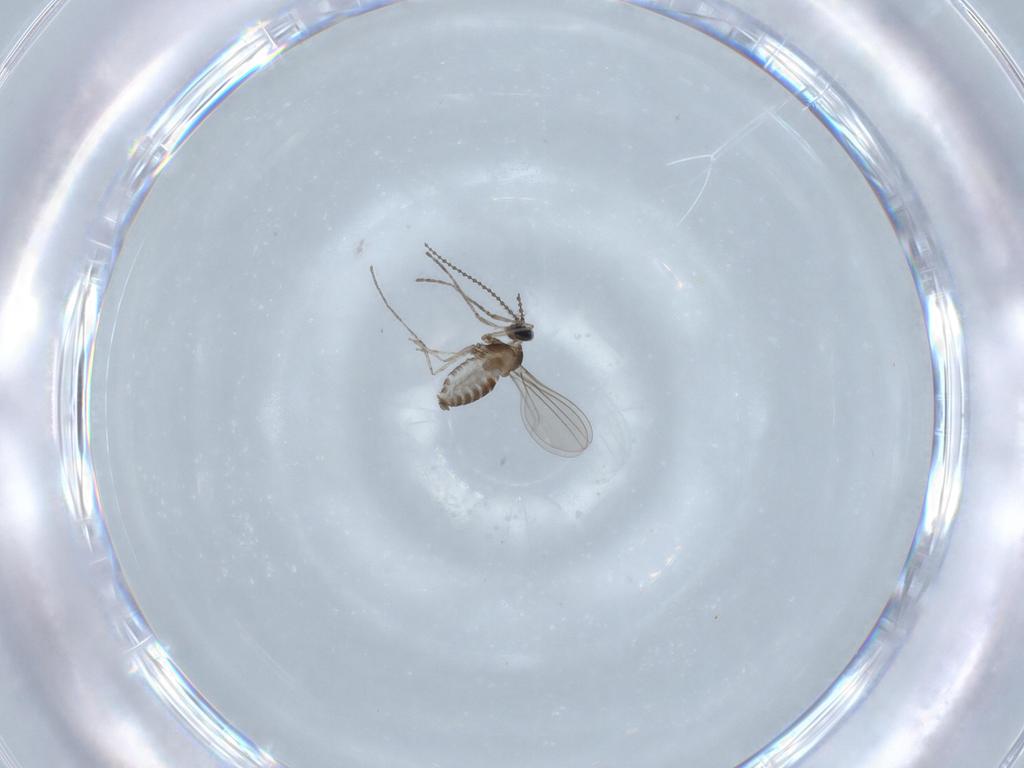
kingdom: Animalia
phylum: Arthropoda
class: Insecta
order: Diptera
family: Cecidomyiidae
